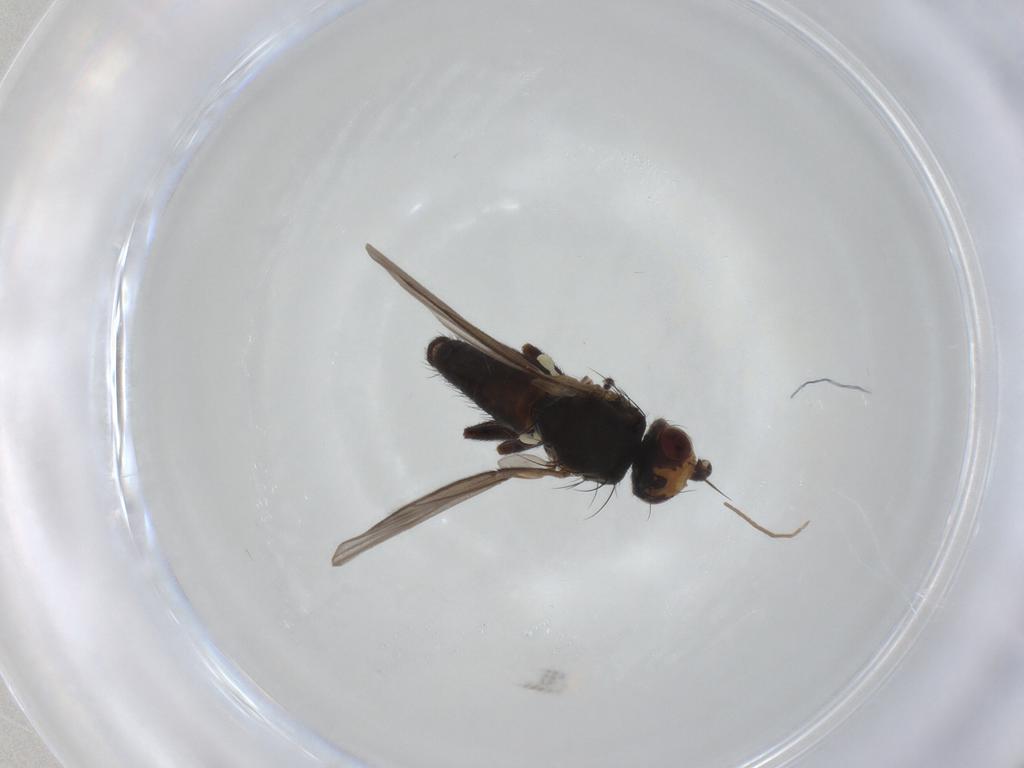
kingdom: Animalia
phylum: Arthropoda
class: Insecta
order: Diptera
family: Agromyzidae
